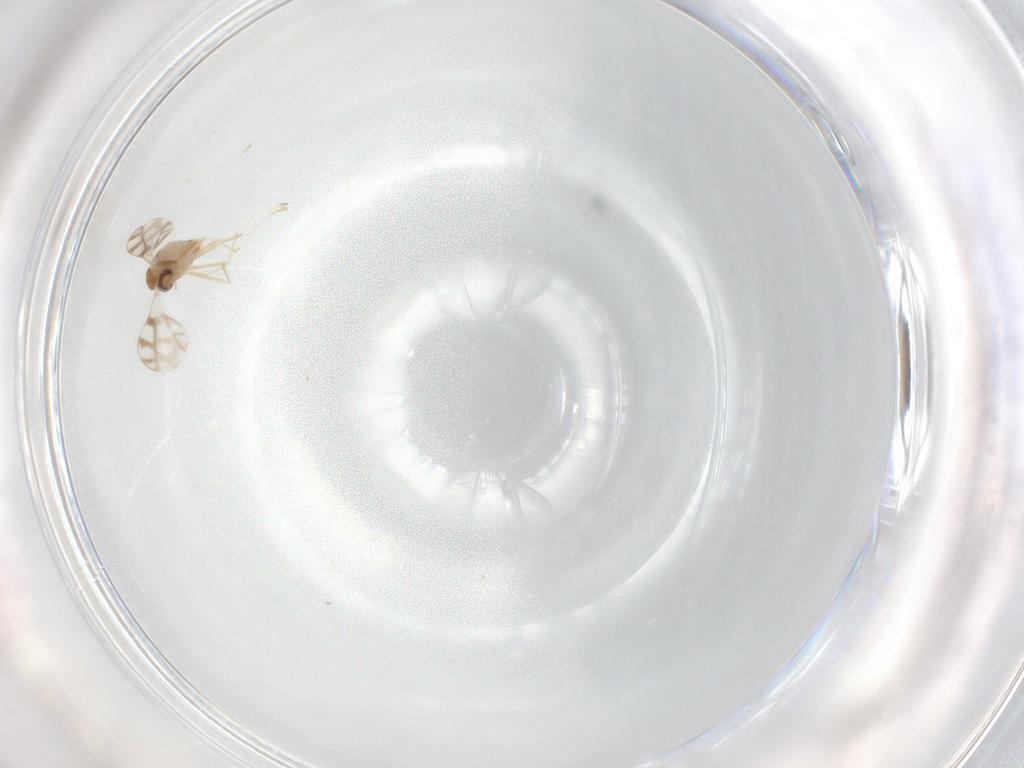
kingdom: Animalia
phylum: Arthropoda
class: Insecta
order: Diptera
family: Cecidomyiidae
